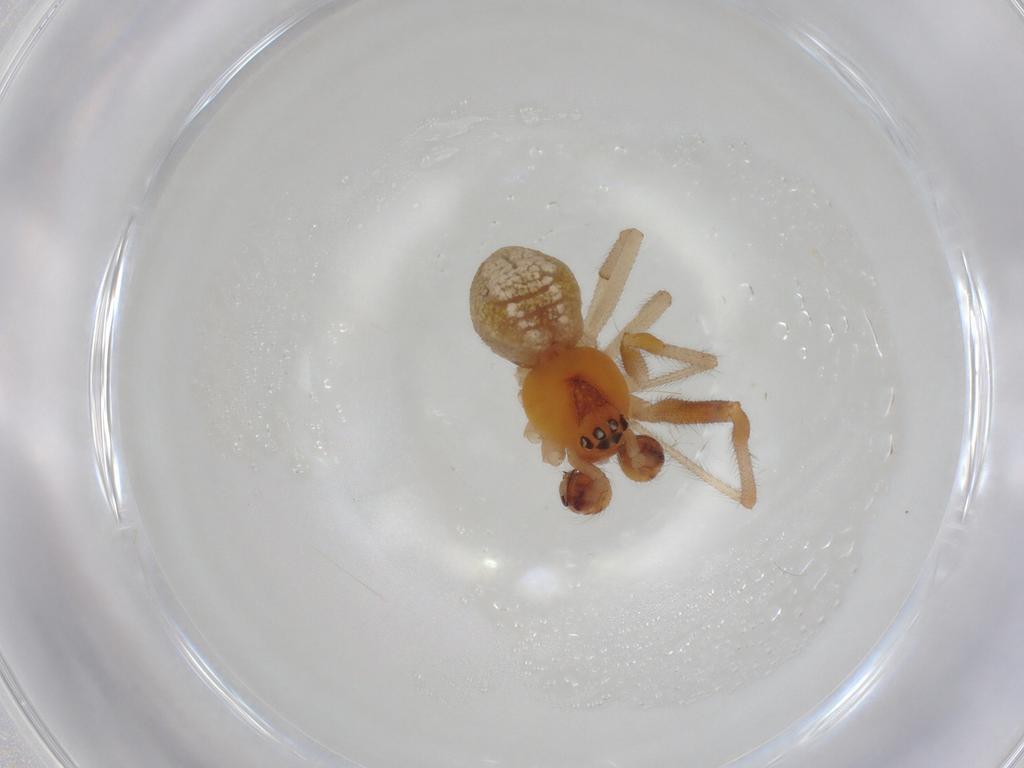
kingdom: Animalia
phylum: Arthropoda
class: Arachnida
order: Araneae
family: Theridiidae
